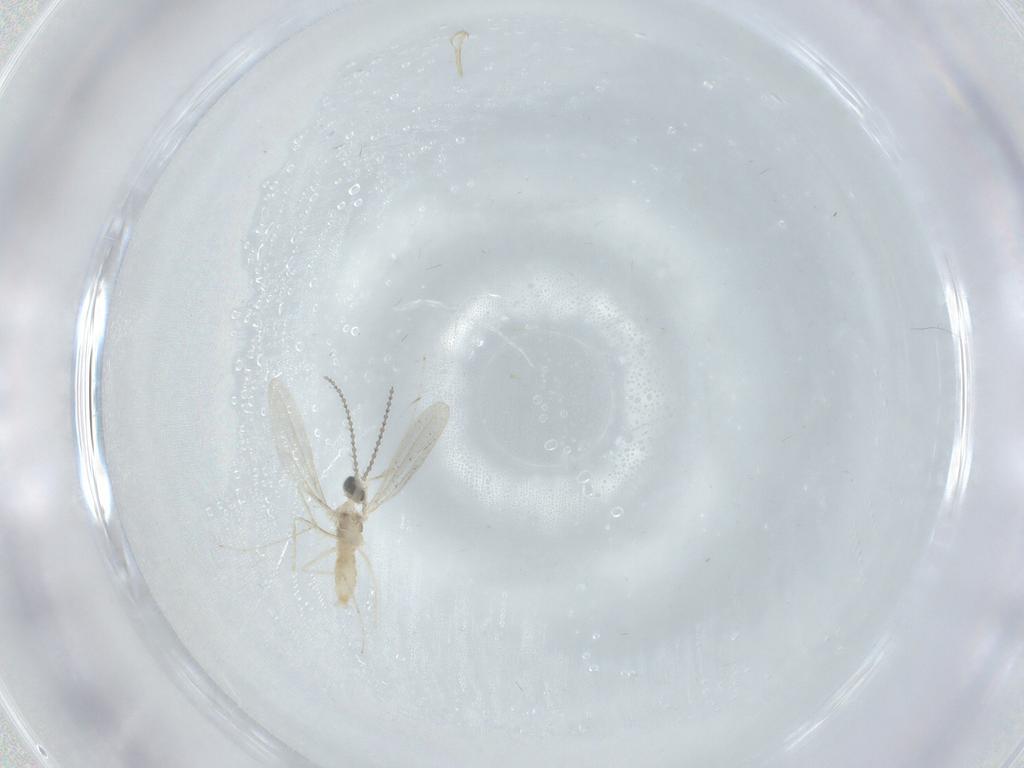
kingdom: Animalia
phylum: Arthropoda
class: Insecta
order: Diptera
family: Cecidomyiidae
